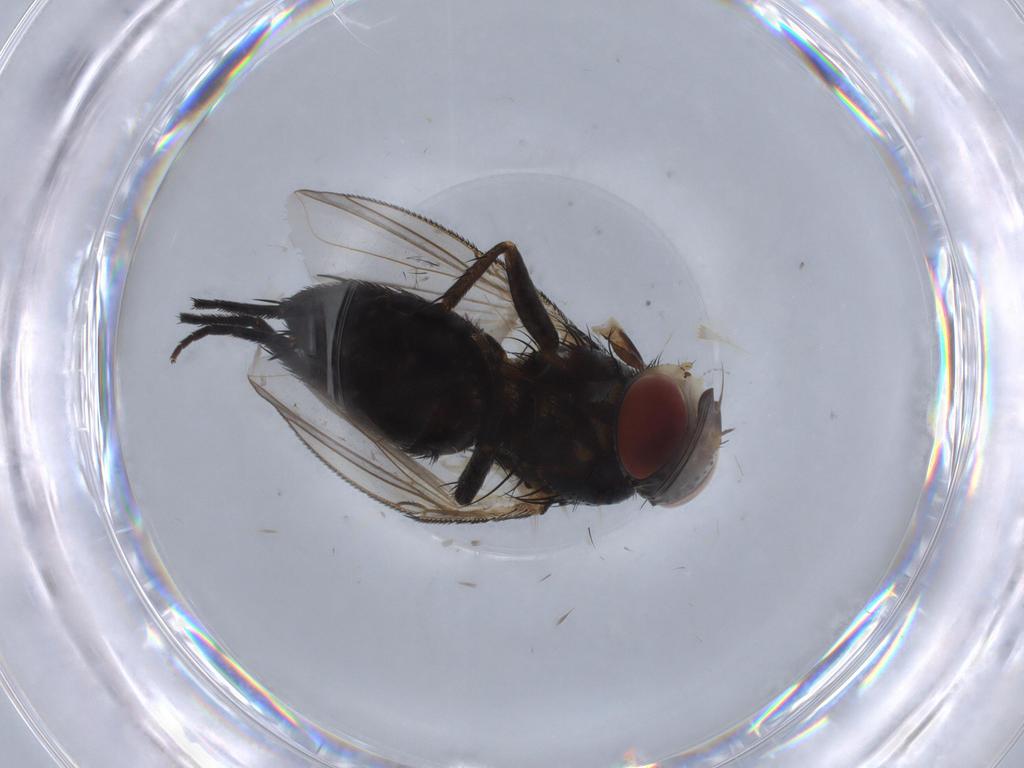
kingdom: Animalia
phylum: Arthropoda
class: Insecta
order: Diptera
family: Tachinidae
